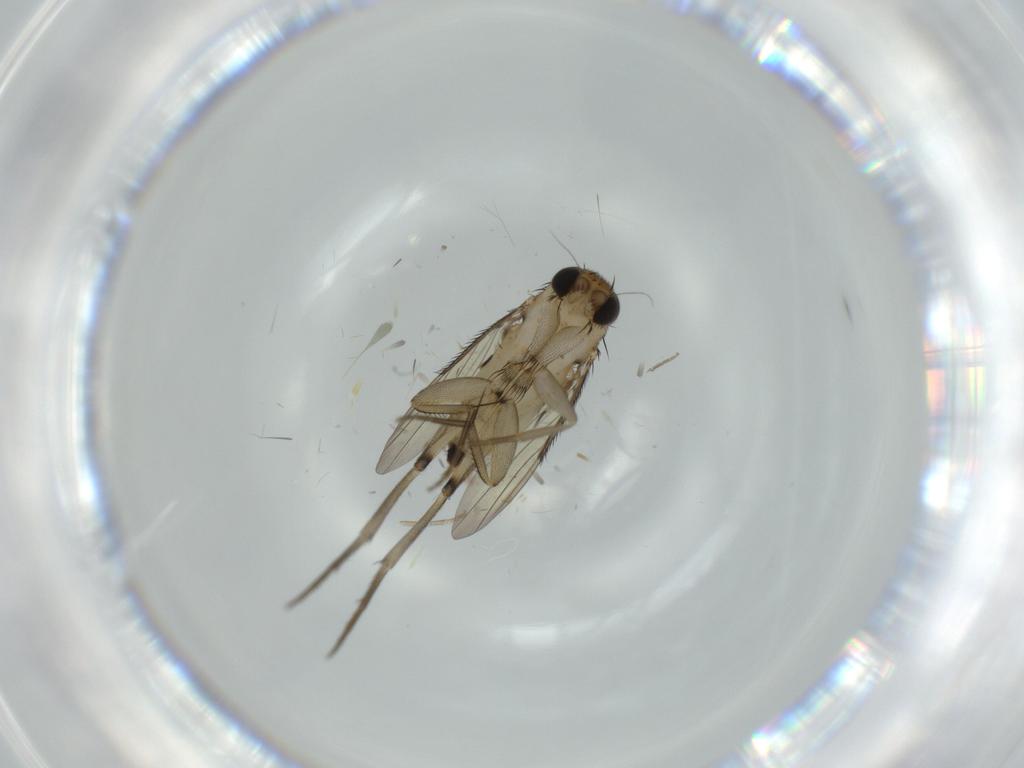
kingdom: Animalia
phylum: Arthropoda
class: Insecta
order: Diptera
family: Phoridae
